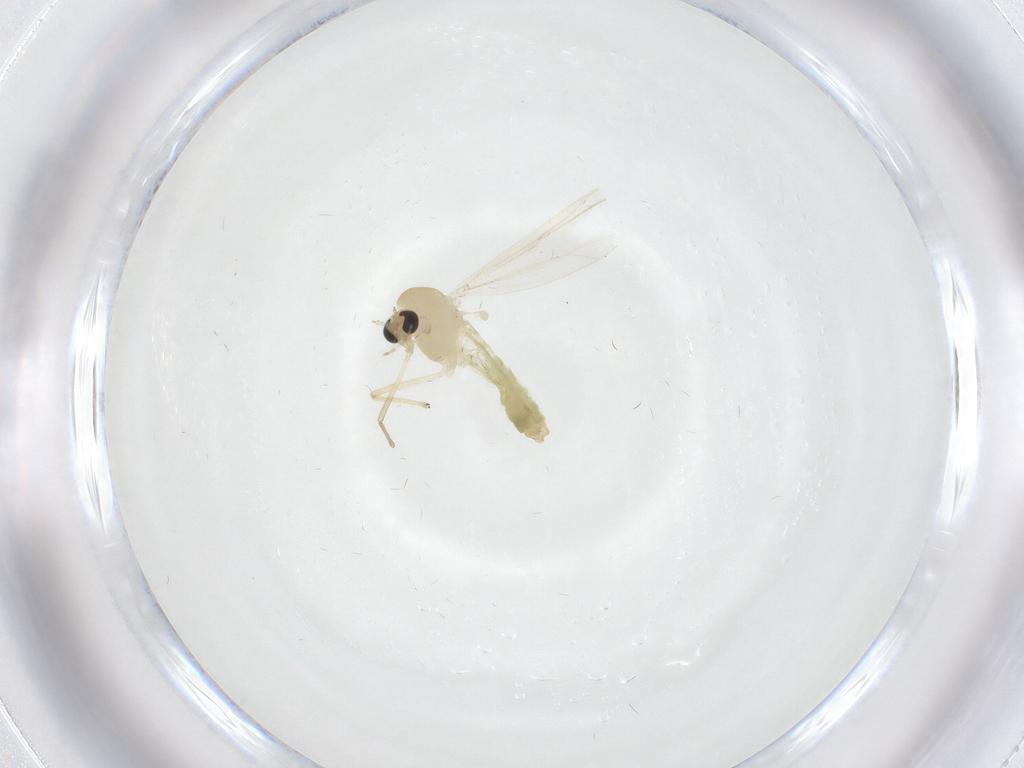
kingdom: Animalia
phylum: Arthropoda
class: Insecta
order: Diptera
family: Chironomidae
